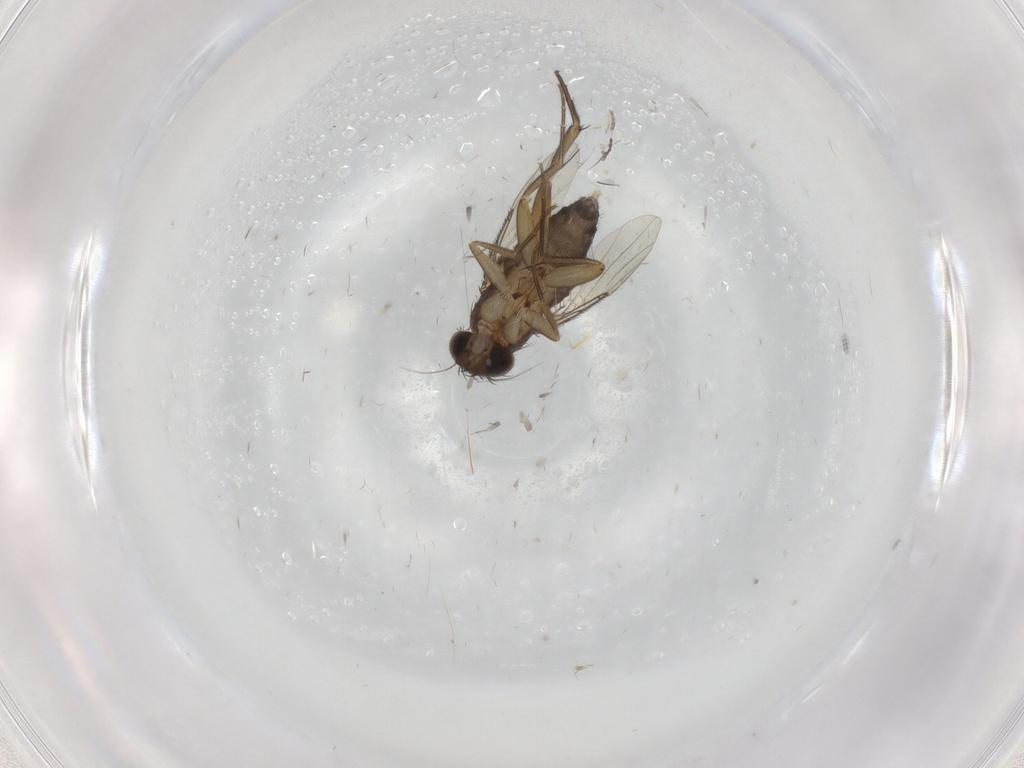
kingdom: Animalia
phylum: Arthropoda
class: Insecta
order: Diptera
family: Phoridae
